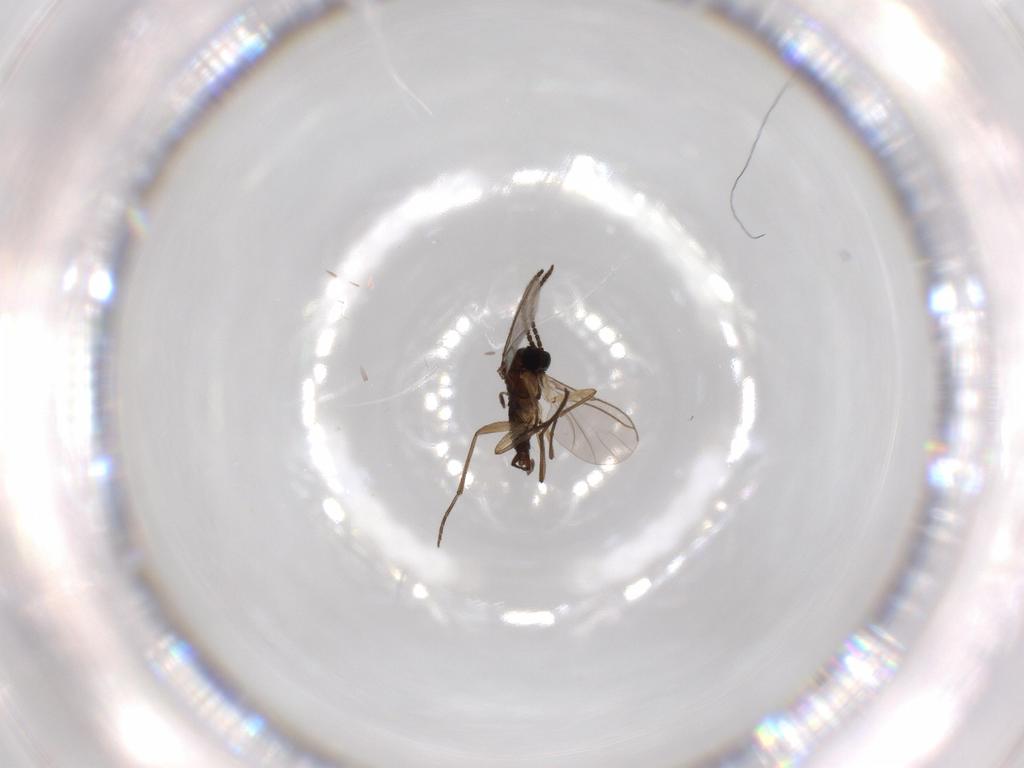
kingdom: Animalia
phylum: Arthropoda
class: Insecta
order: Diptera
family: Sciaridae
